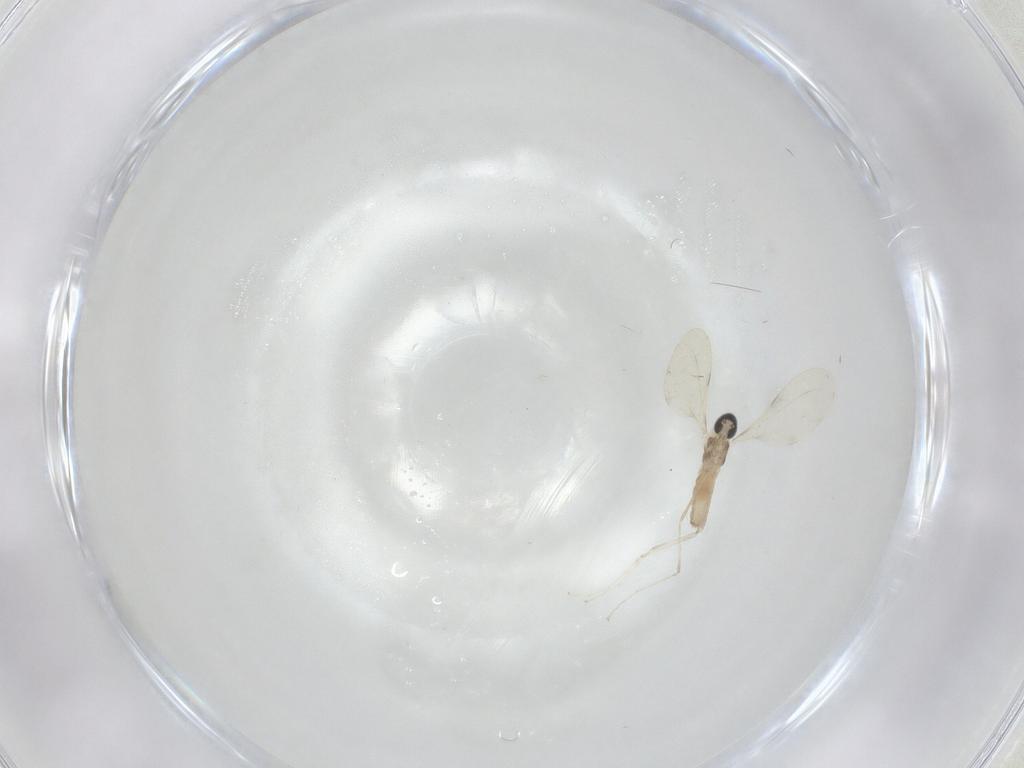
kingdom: Animalia
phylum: Arthropoda
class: Insecta
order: Diptera
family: Cecidomyiidae
